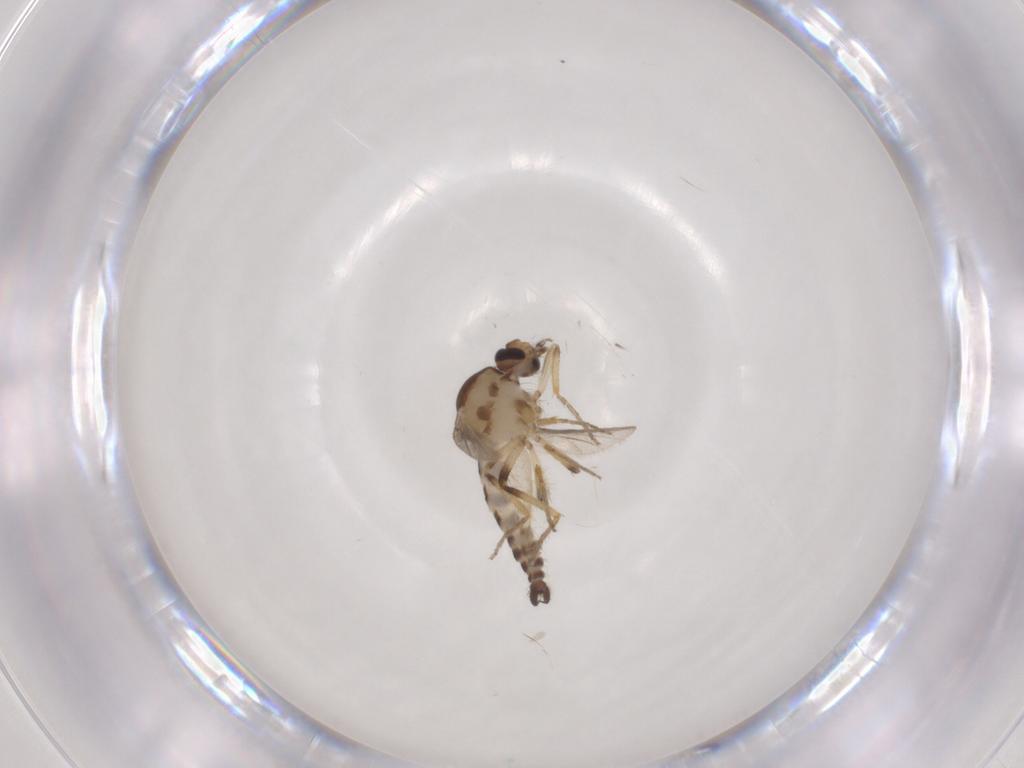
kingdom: Animalia
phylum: Arthropoda
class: Insecta
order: Diptera
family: Ceratopogonidae
